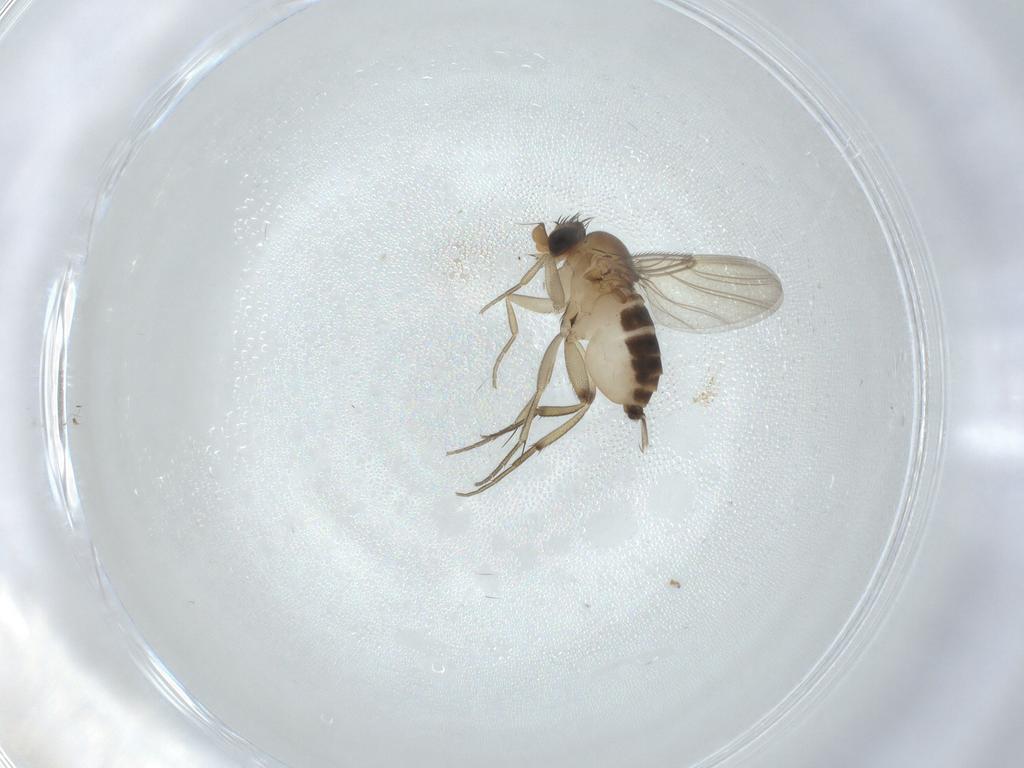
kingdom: Animalia
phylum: Arthropoda
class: Insecta
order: Diptera
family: Phoridae
